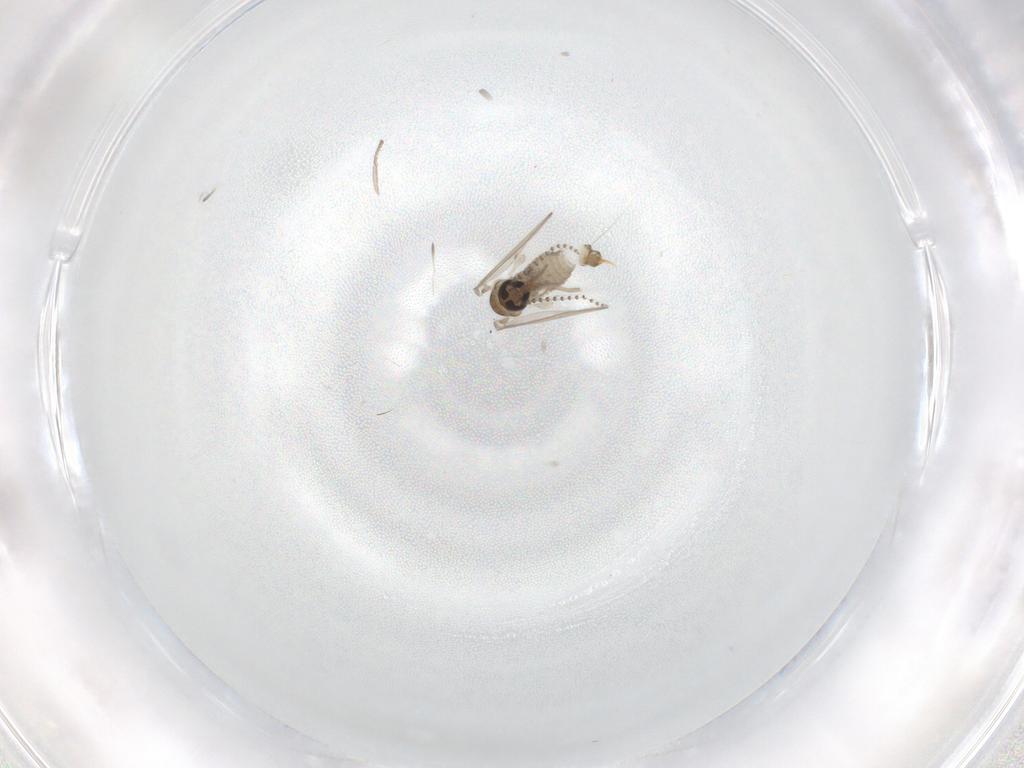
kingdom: Animalia
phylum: Arthropoda
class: Insecta
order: Diptera
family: Psychodidae
